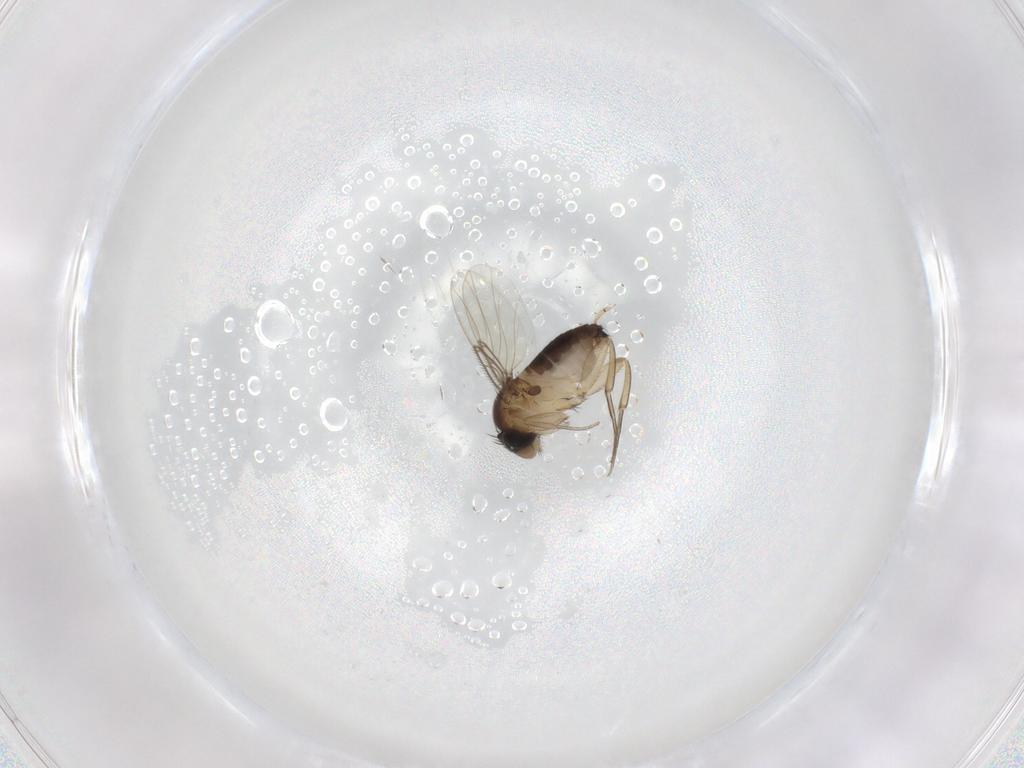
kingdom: Animalia
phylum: Arthropoda
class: Insecta
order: Diptera
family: Phoridae
